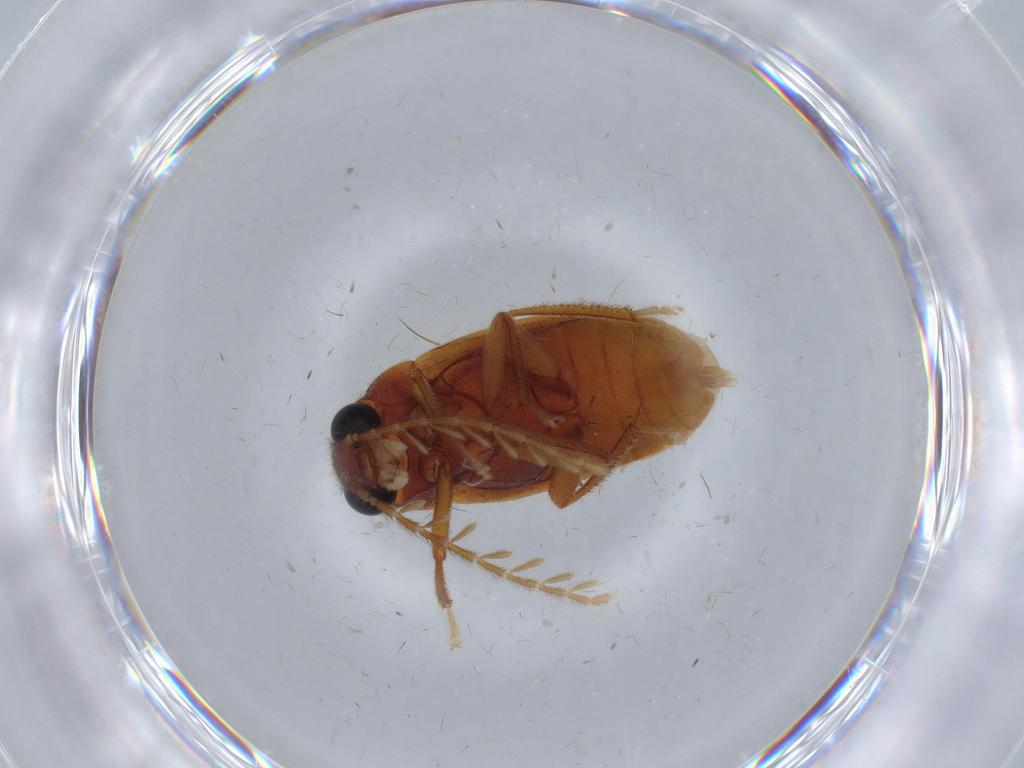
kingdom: Animalia
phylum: Arthropoda
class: Insecta
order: Coleoptera
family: Ptilodactylidae
